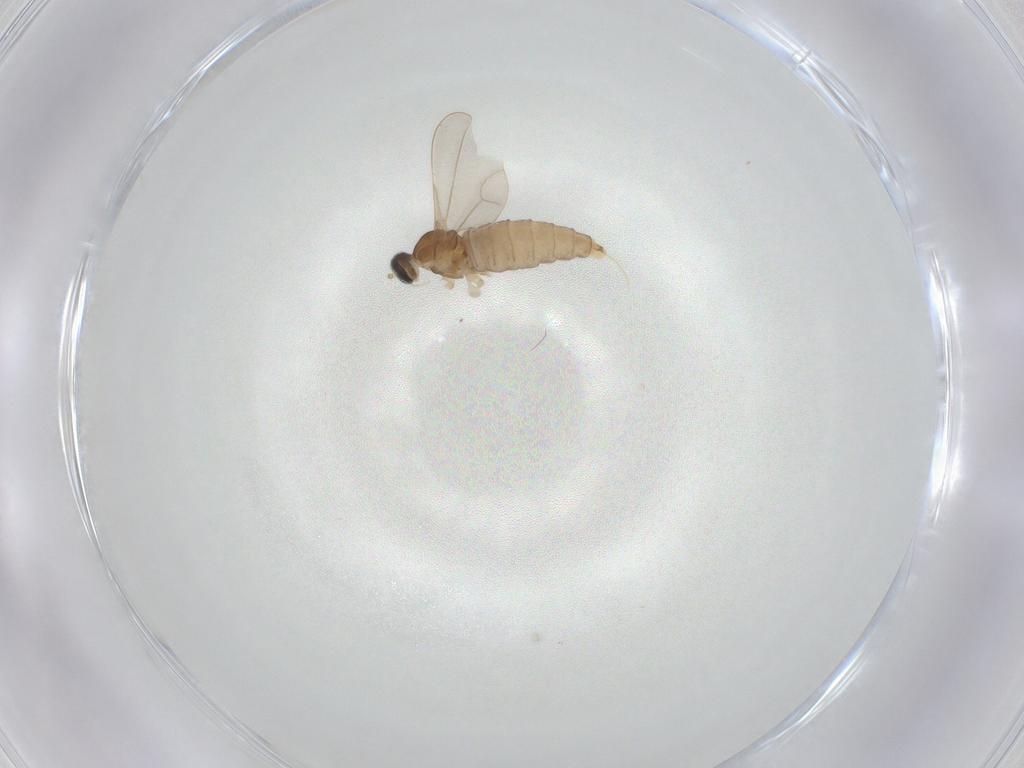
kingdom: Animalia
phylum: Arthropoda
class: Insecta
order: Diptera
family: Cecidomyiidae
